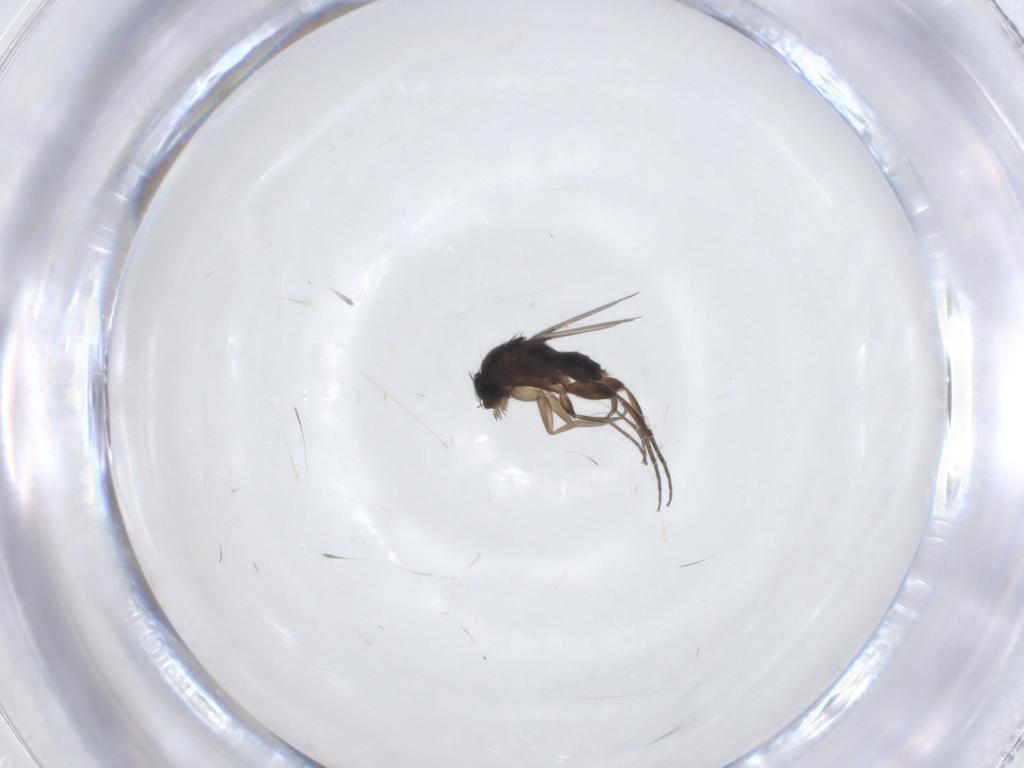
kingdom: Animalia
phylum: Arthropoda
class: Insecta
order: Diptera
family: Phoridae
